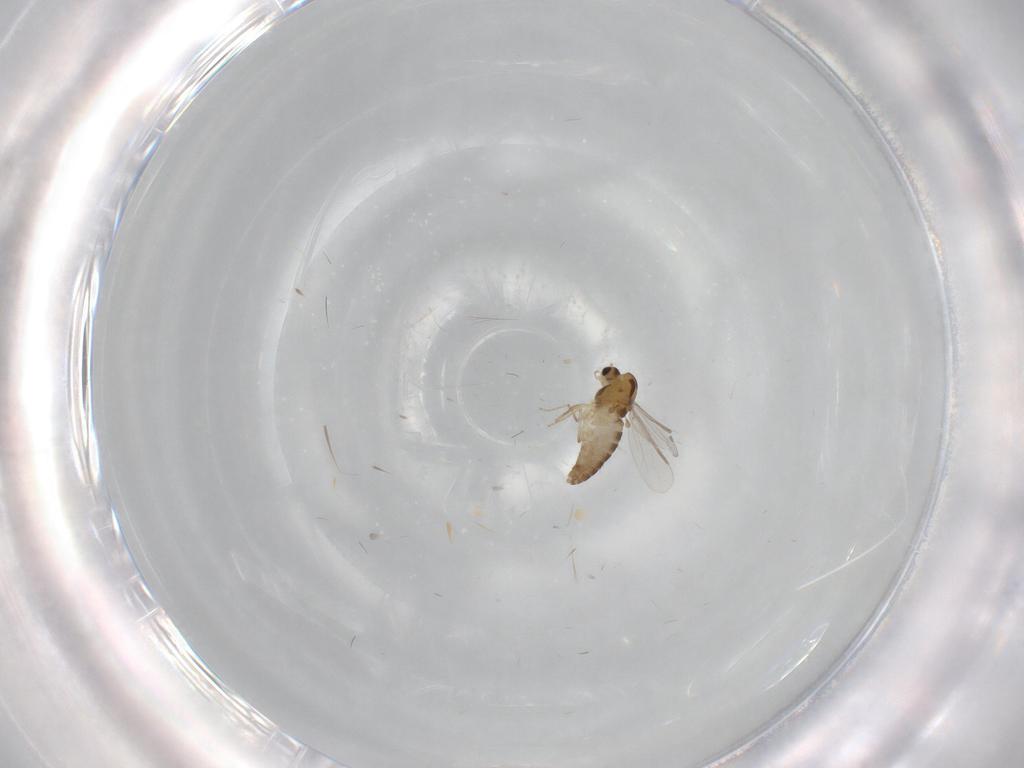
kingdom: Animalia
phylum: Arthropoda
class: Insecta
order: Diptera
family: Chironomidae
